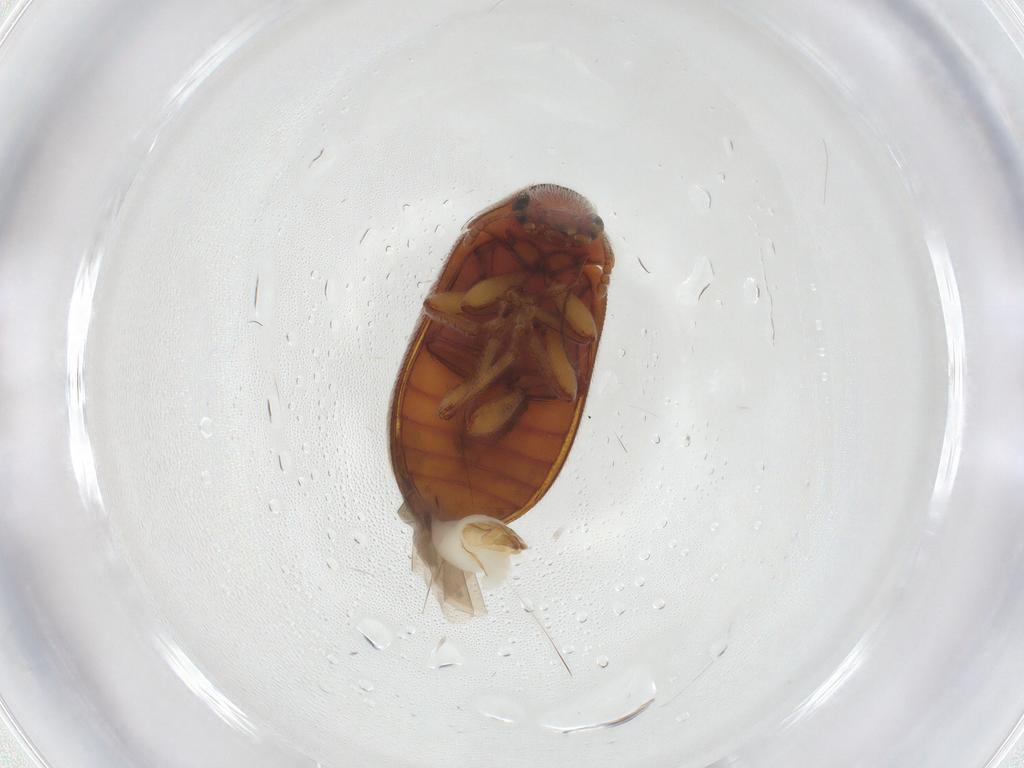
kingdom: Animalia
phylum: Arthropoda
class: Insecta
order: Coleoptera
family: Byturidae
